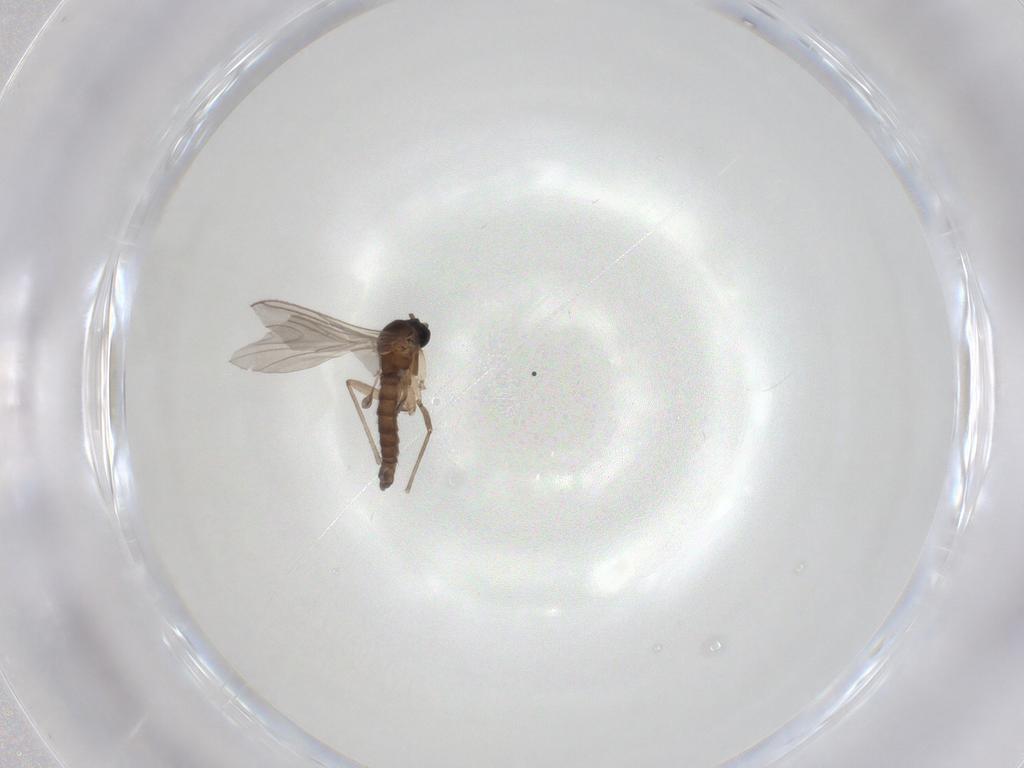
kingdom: Animalia
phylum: Arthropoda
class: Insecta
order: Diptera
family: Sciaridae
